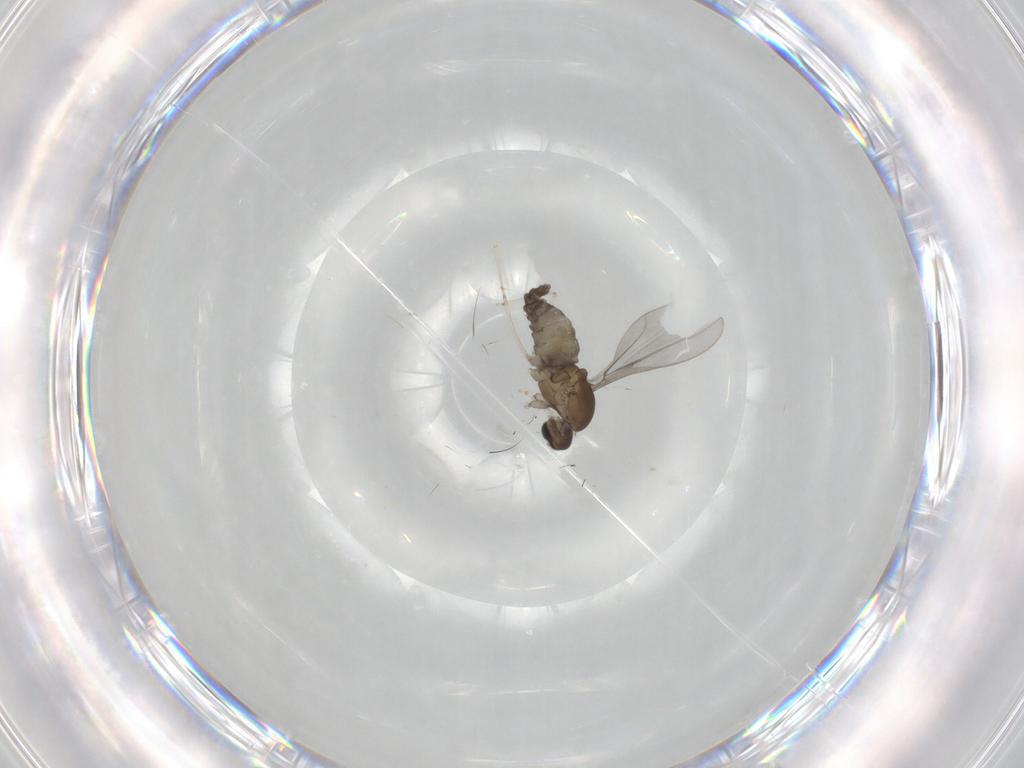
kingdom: Animalia
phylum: Arthropoda
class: Insecta
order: Diptera
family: Cecidomyiidae
